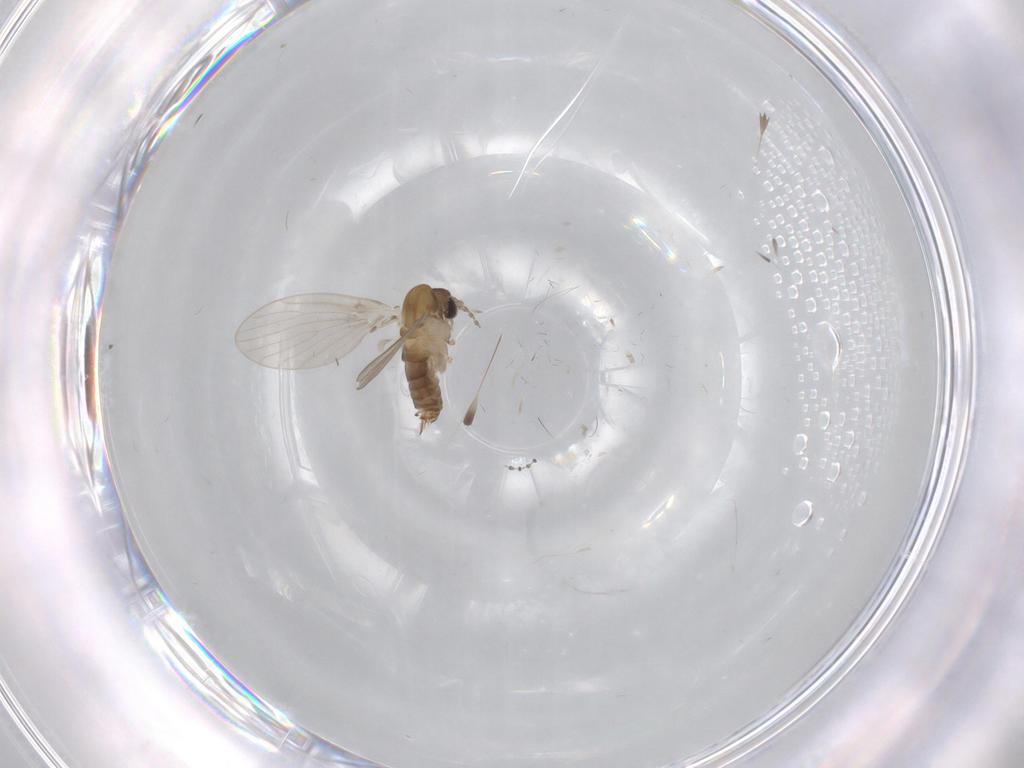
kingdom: Animalia
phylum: Arthropoda
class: Insecta
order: Diptera
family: Psychodidae
